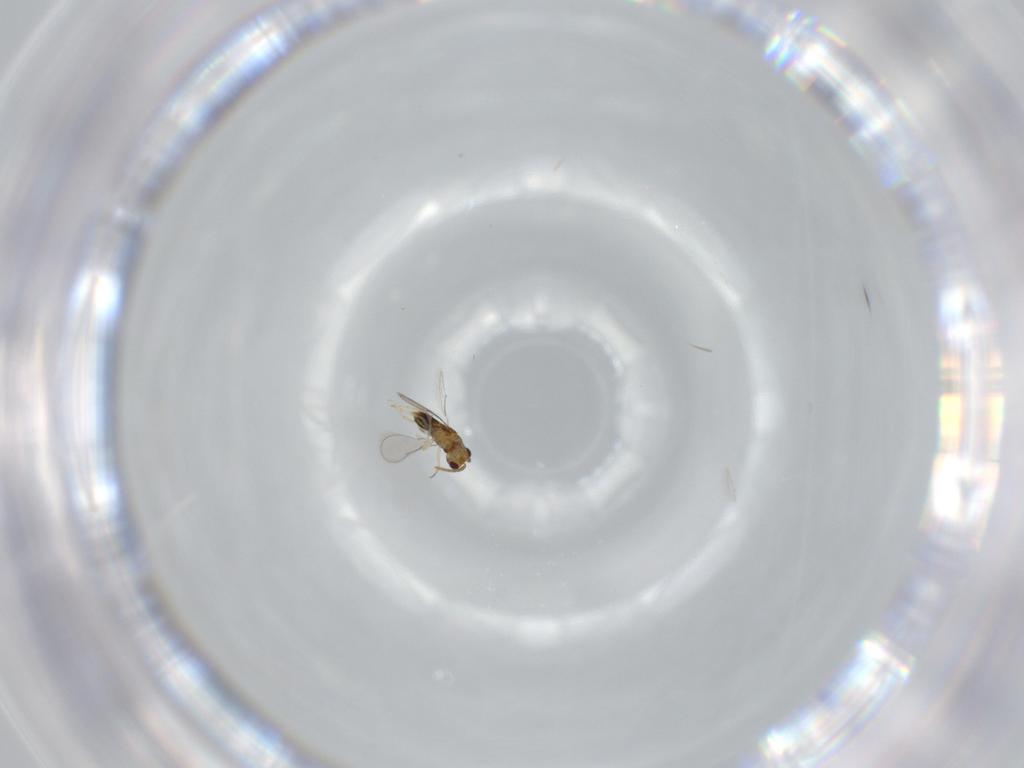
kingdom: Animalia
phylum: Arthropoda
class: Insecta
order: Hymenoptera
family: Aphelinidae
